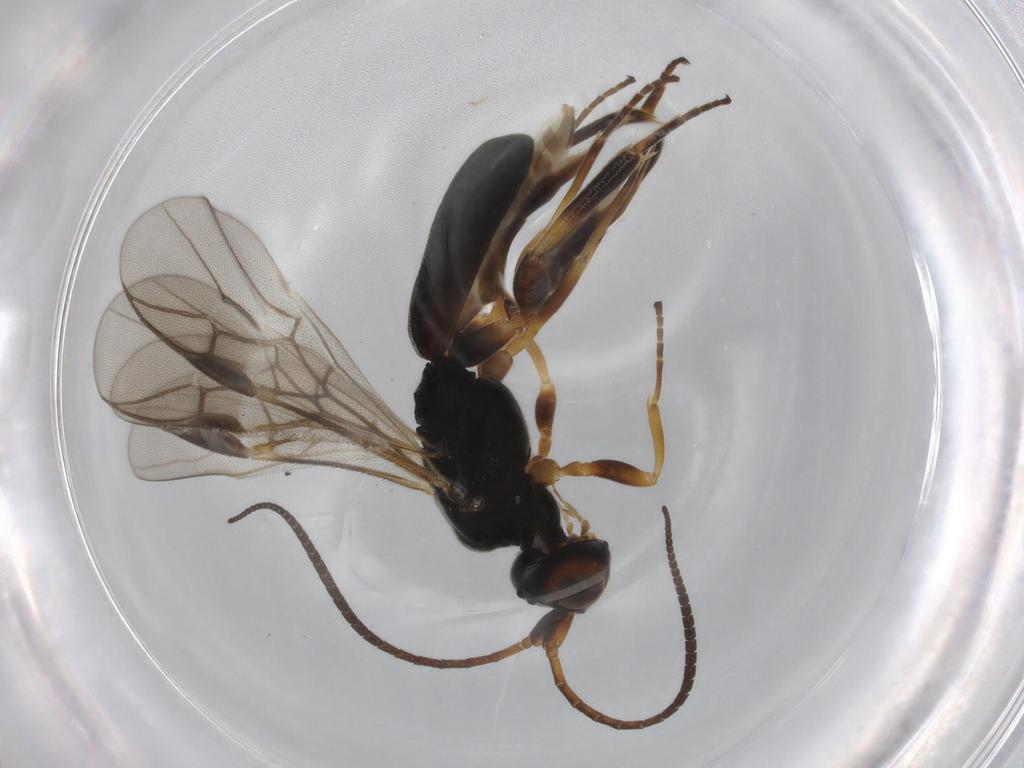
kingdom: Animalia
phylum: Arthropoda
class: Insecta
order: Hymenoptera
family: Braconidae
